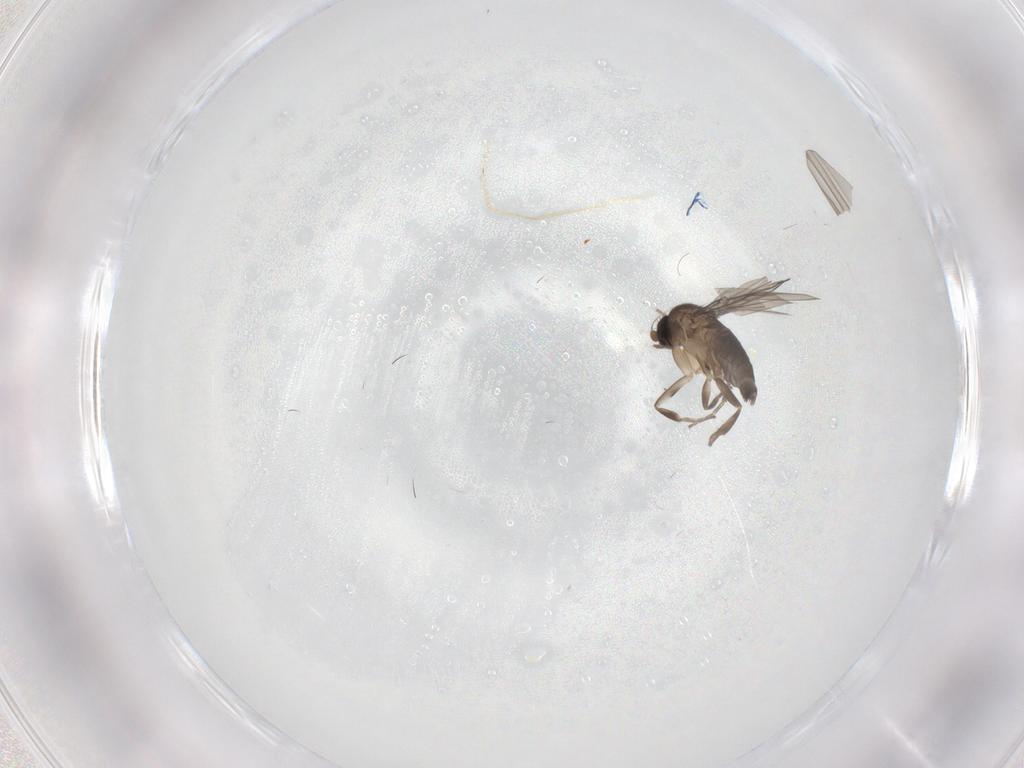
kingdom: Animalia
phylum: Arthropoda
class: Insecta
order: Diptera
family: Phoridae
